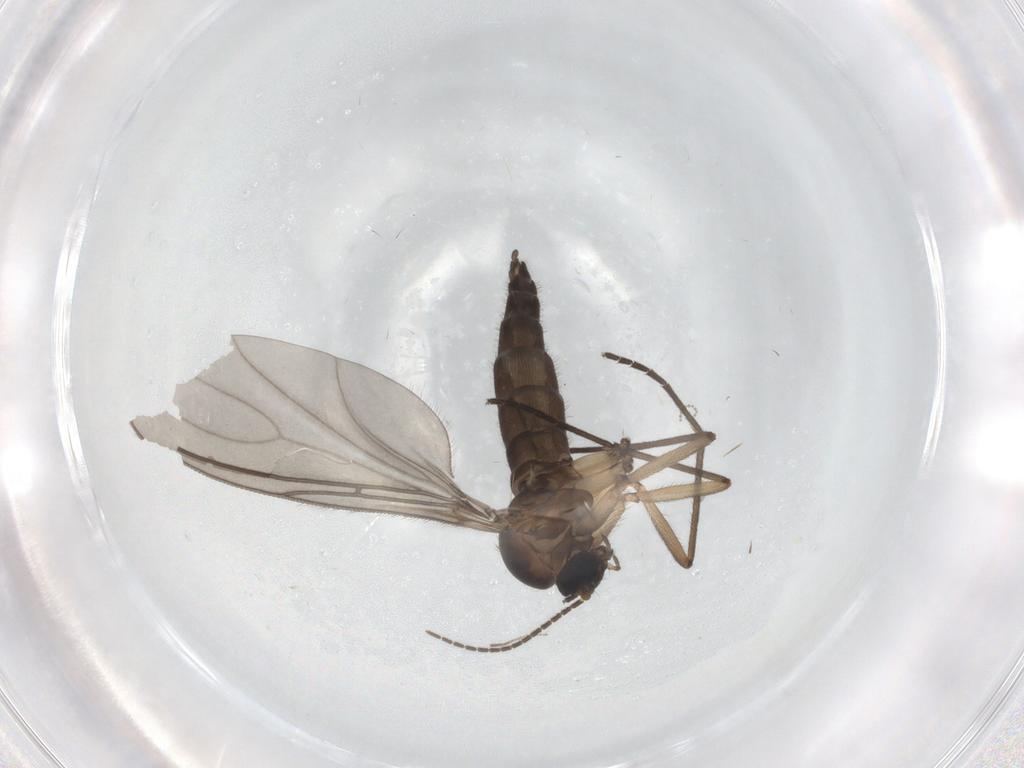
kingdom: Animalia
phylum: Arthropoda
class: Insecta
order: Diptera
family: Sciaridae
